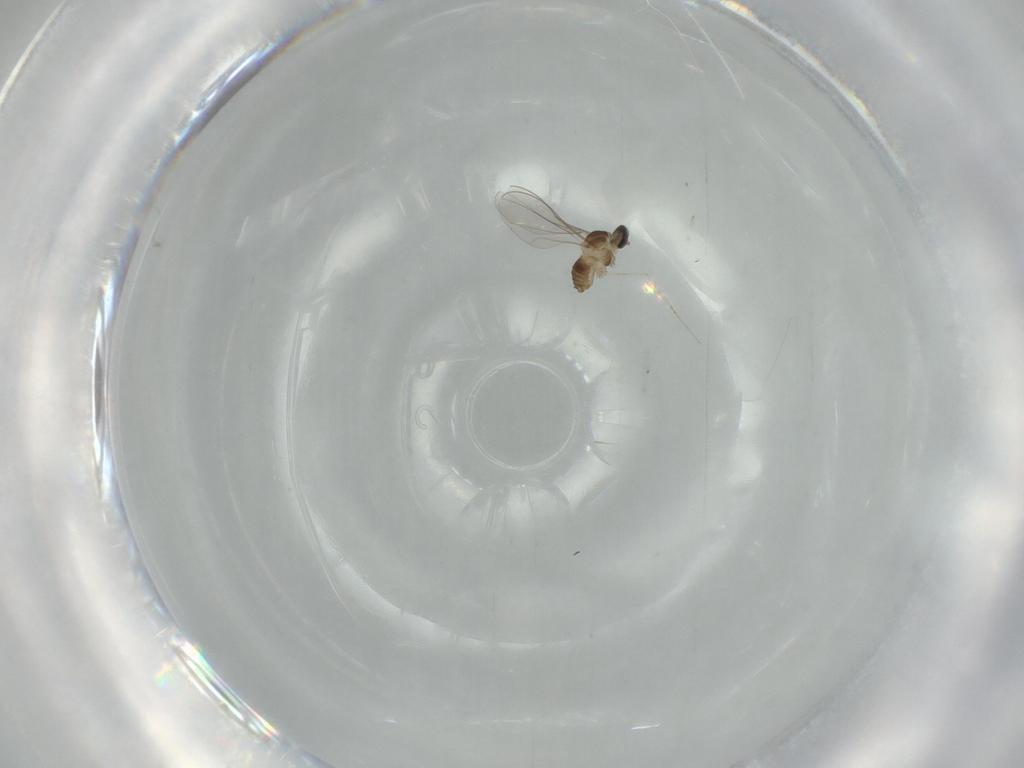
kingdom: Animalia
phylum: Arthropoda
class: Insecta
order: Diptera
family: Cecidomyiidae
